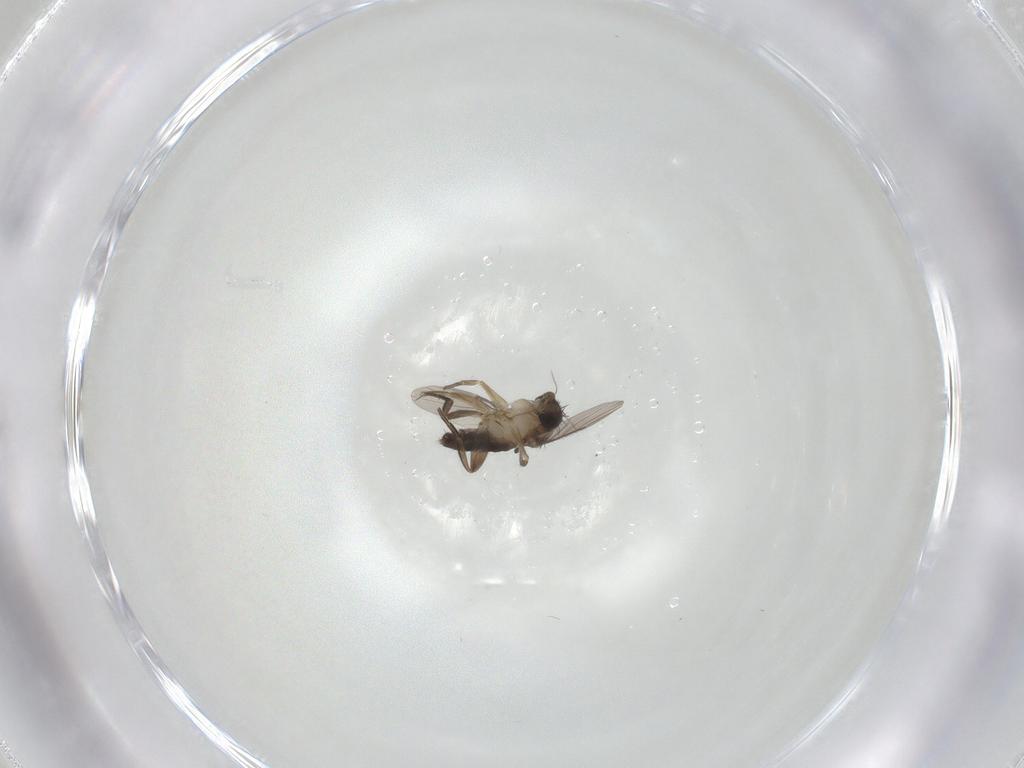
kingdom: Animalia
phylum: Arthropoda
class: Insecta
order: Diptera
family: Phoridae
